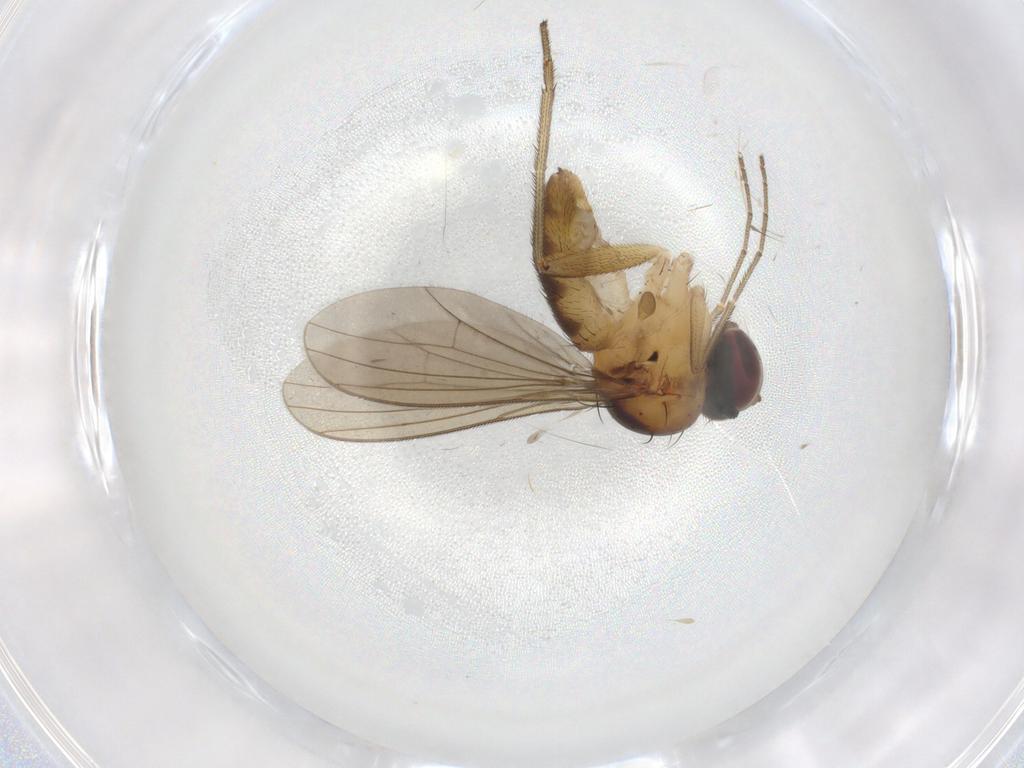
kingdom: Animalia
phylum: Arthropoda
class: Insecta
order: Diptera
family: Dolichopodidae
